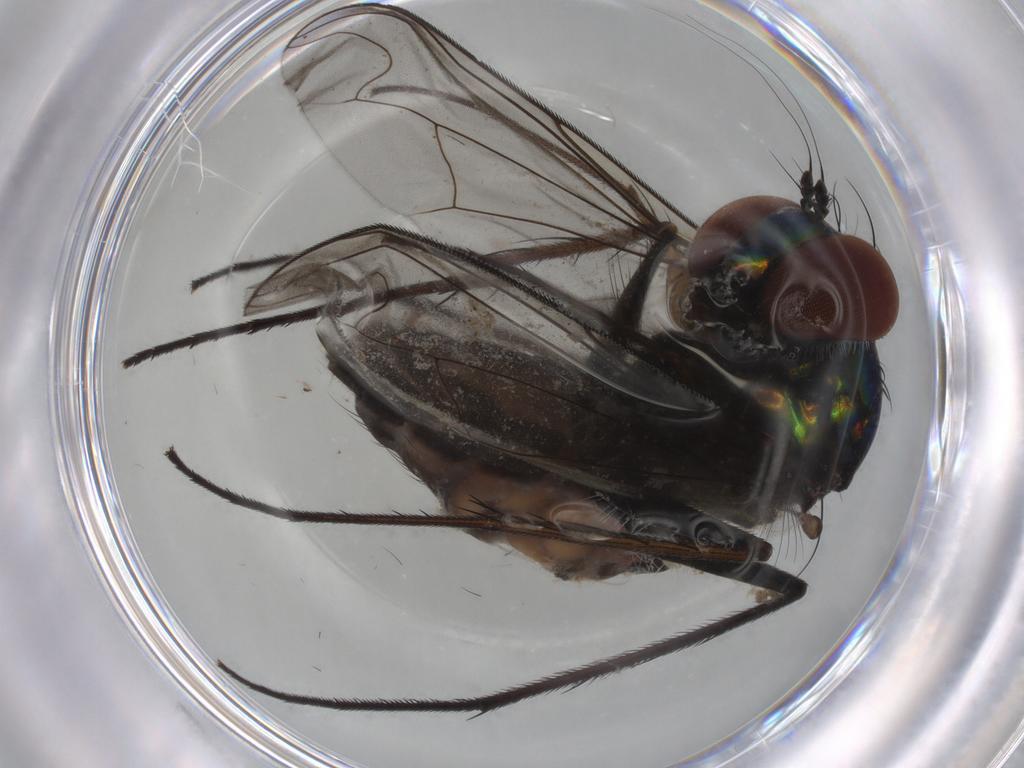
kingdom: Animalia
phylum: Arthropoda
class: Insecta
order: Diptera
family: Dolichopodidae
